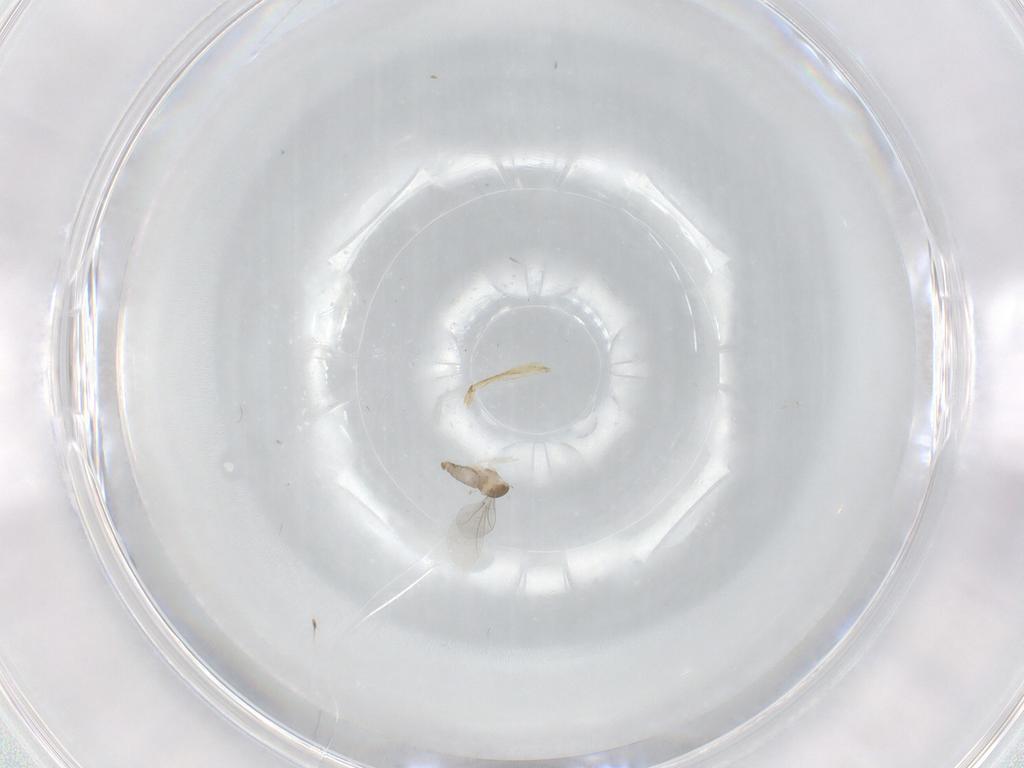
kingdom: Animalia
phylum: Arthropoda
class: Insecta
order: Diptera
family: Cecidomyiidae
